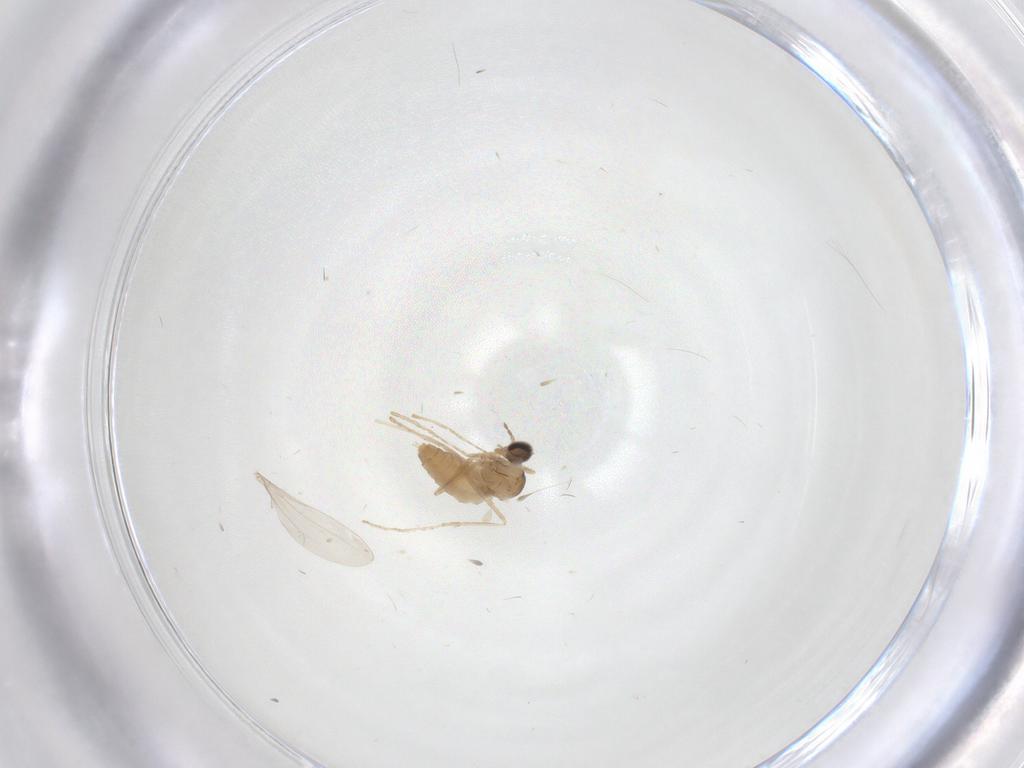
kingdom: Animalia
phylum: Arthropoda
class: Insecta
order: Diptera
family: Cecidomyiidae
